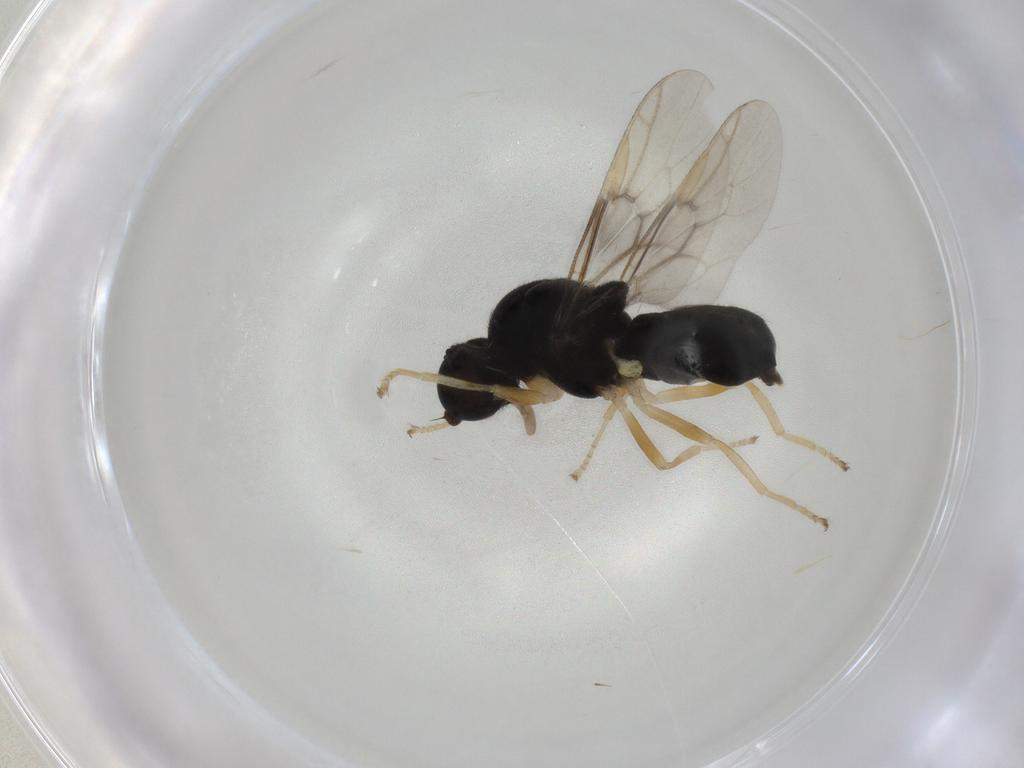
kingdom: Animalia
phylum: Arthropoda
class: Insecta
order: Diptera
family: Stratiomyidae
